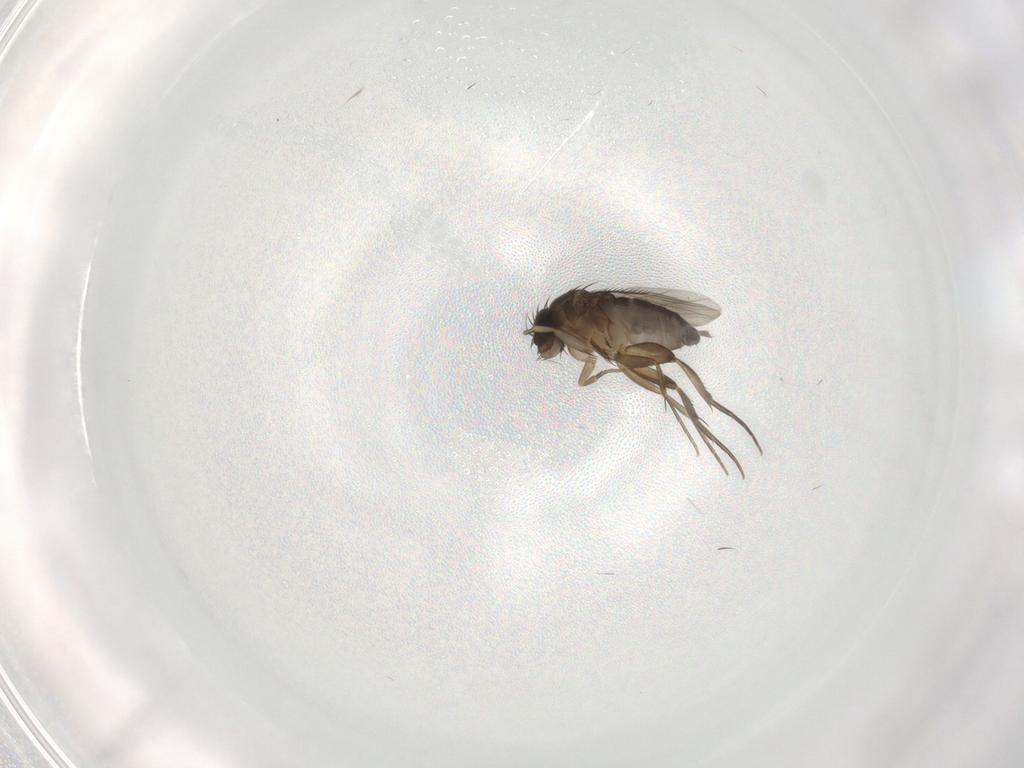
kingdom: Animalia
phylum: Arthropoda
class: Insecta
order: Diptera
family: Phoridae
